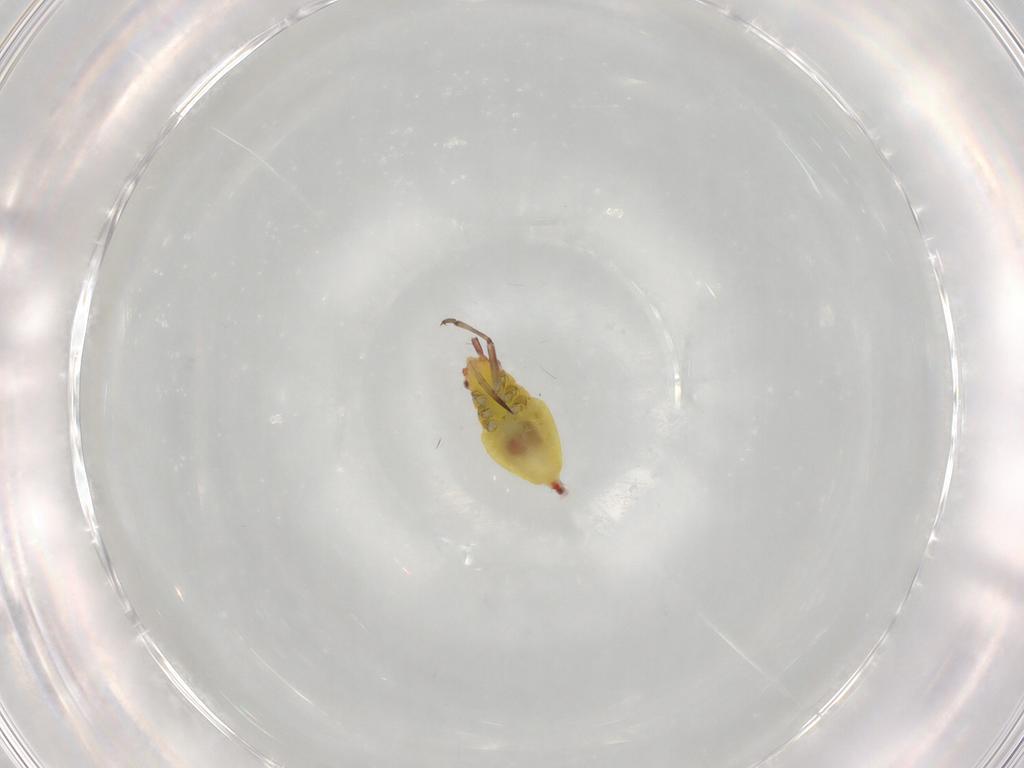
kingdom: Animalia
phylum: Arthropoda
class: Insecta
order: Hemiptera
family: Miridae
